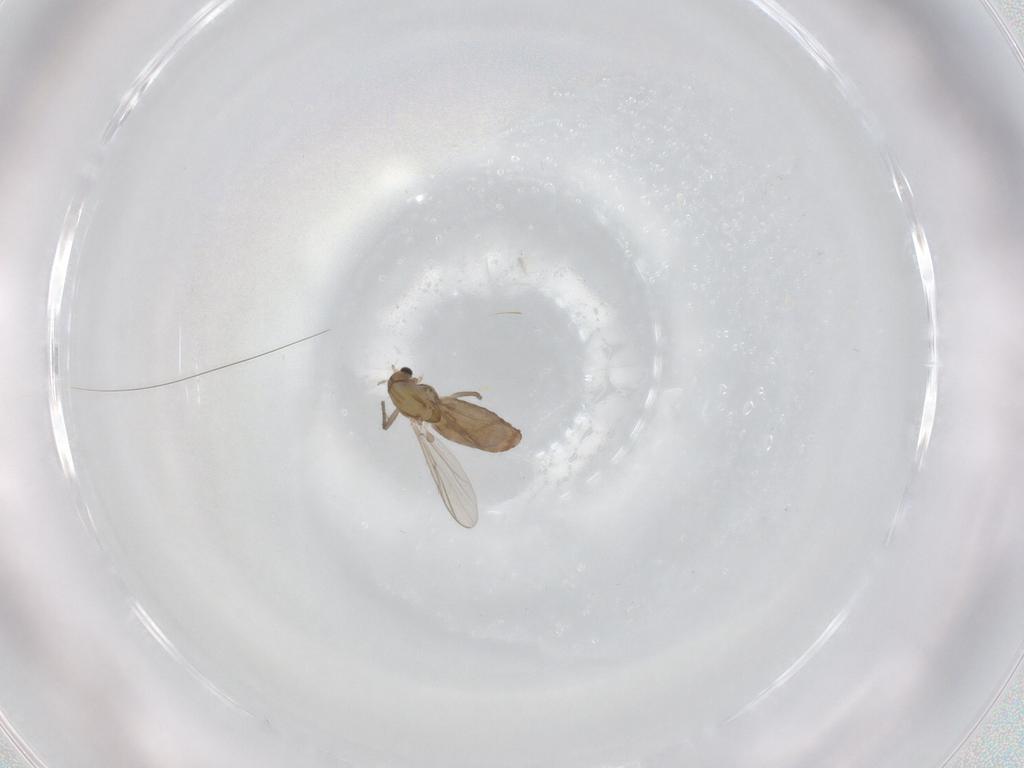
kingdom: Animalia
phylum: Arthropoda
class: Insecta
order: Diptera
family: Chironomidae
